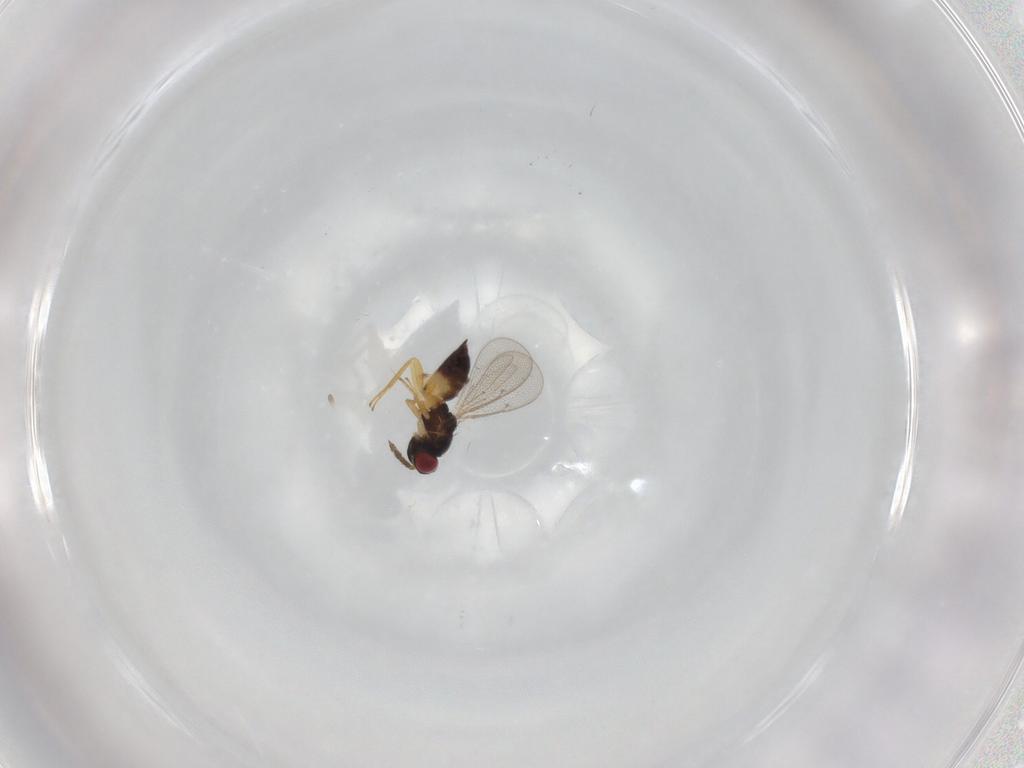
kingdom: Animalia
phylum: Arthropoda
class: Insecta
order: Hymenoptera
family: Eulophidae
